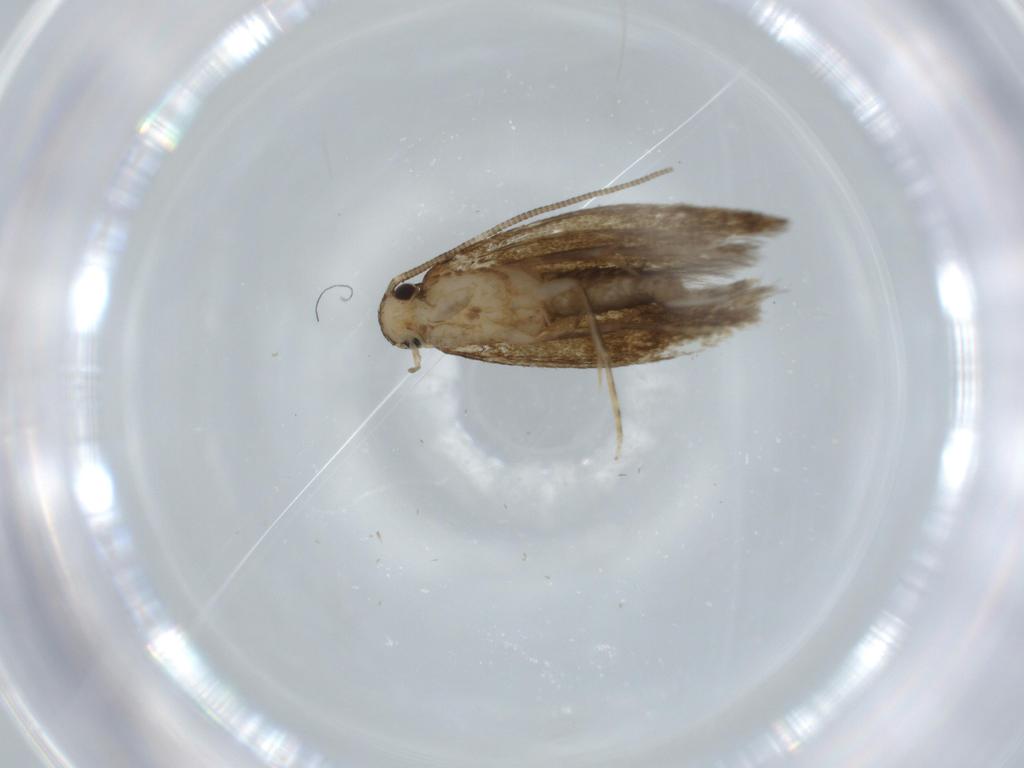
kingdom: Animalia
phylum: Arthropoda
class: Insecta
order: Lepidoptera
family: Tineidae
